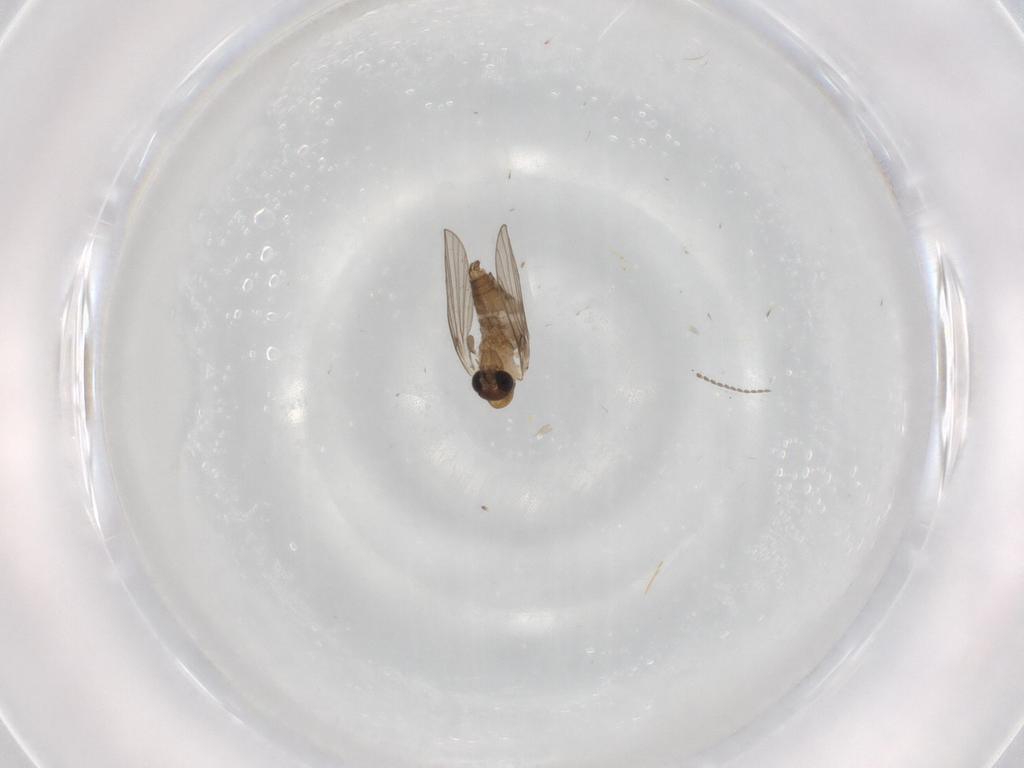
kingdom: Animalia
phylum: Arthropoda
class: Insecta
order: Diptera
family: Psychodidae
